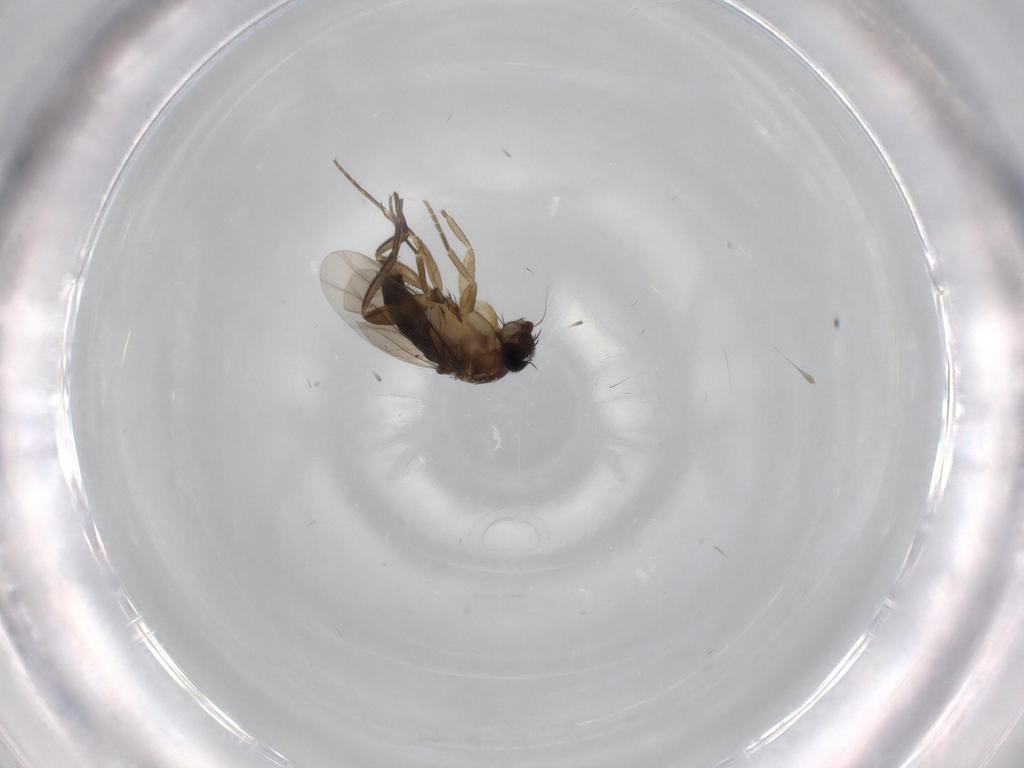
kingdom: Animalia
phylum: Arthropoda
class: Insecta
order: Diptera
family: Phoridae
